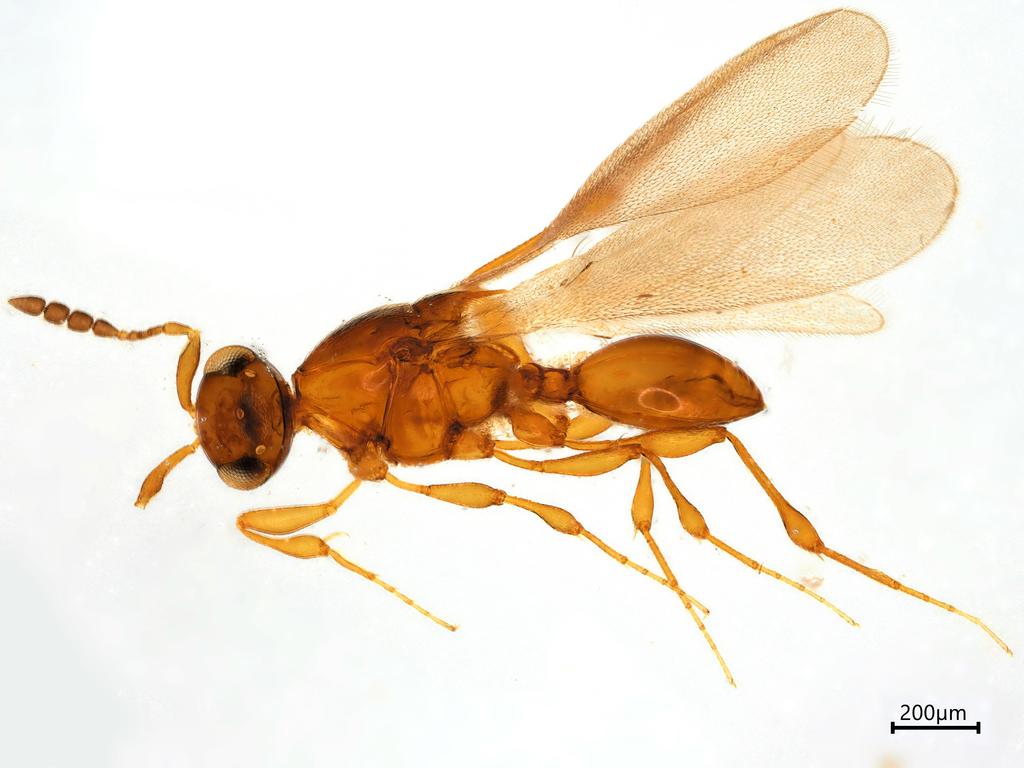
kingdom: Animalia
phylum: Arthropoda
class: Insecta
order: Hymenoptera
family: Platygastridae
